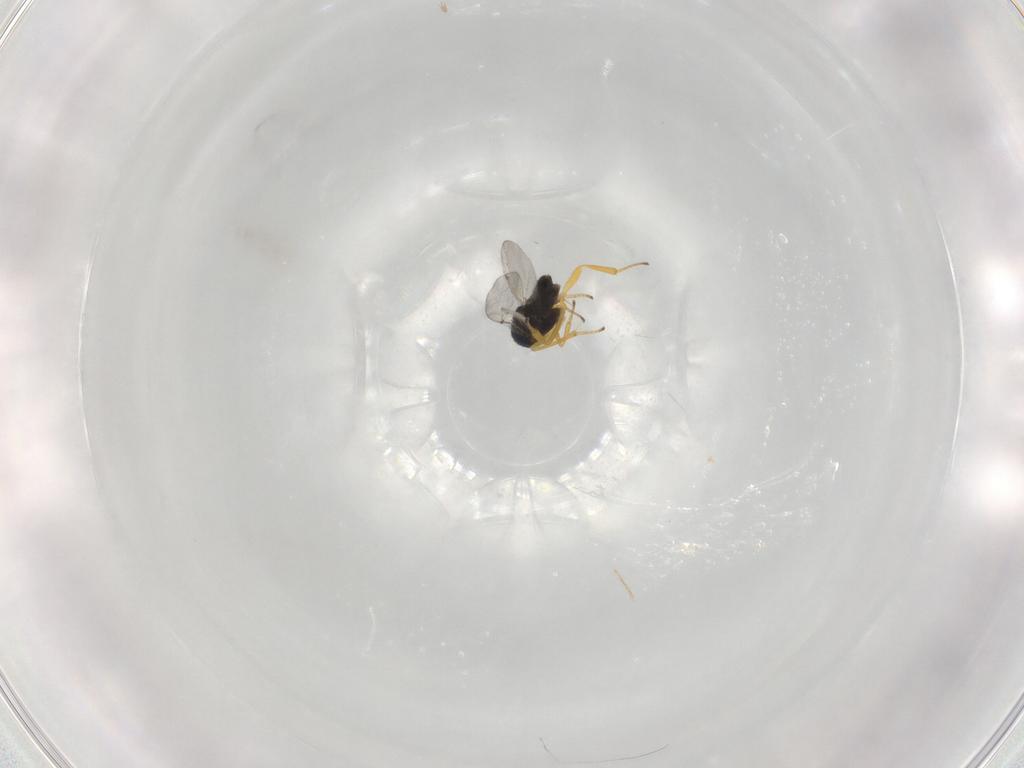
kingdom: Animalia
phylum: Arthropoda
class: Insecta
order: Hymenoptera
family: Encyrtidae
